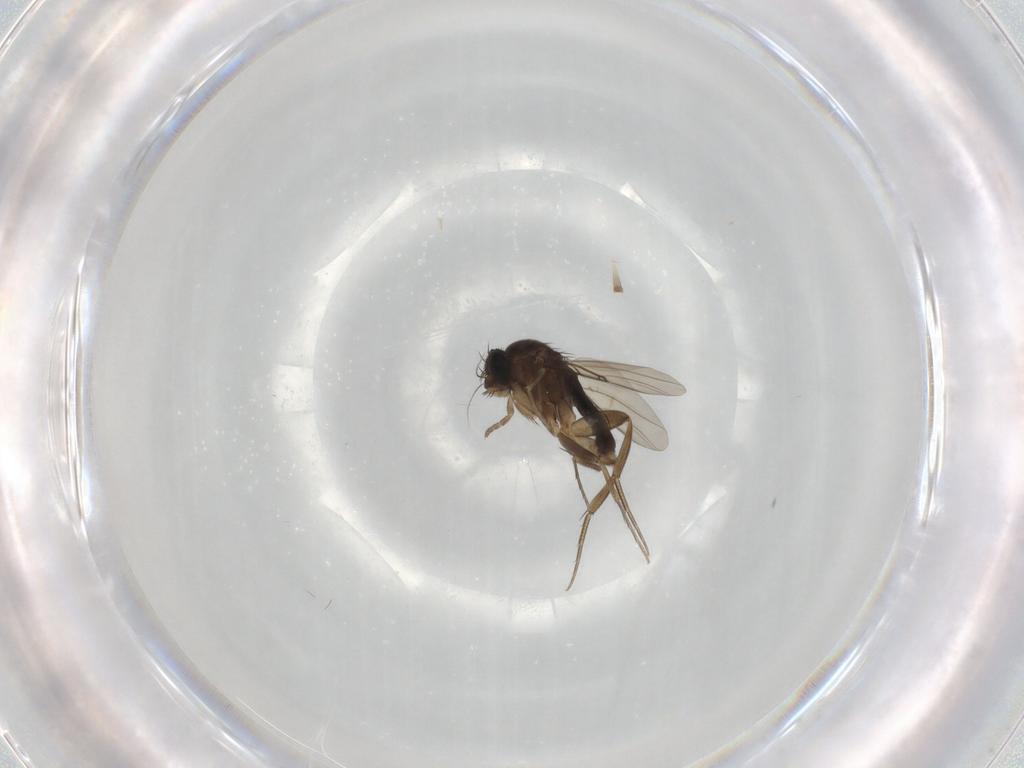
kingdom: Animalia
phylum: Arthropoda
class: Insecta
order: Diptera
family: Phoridae
